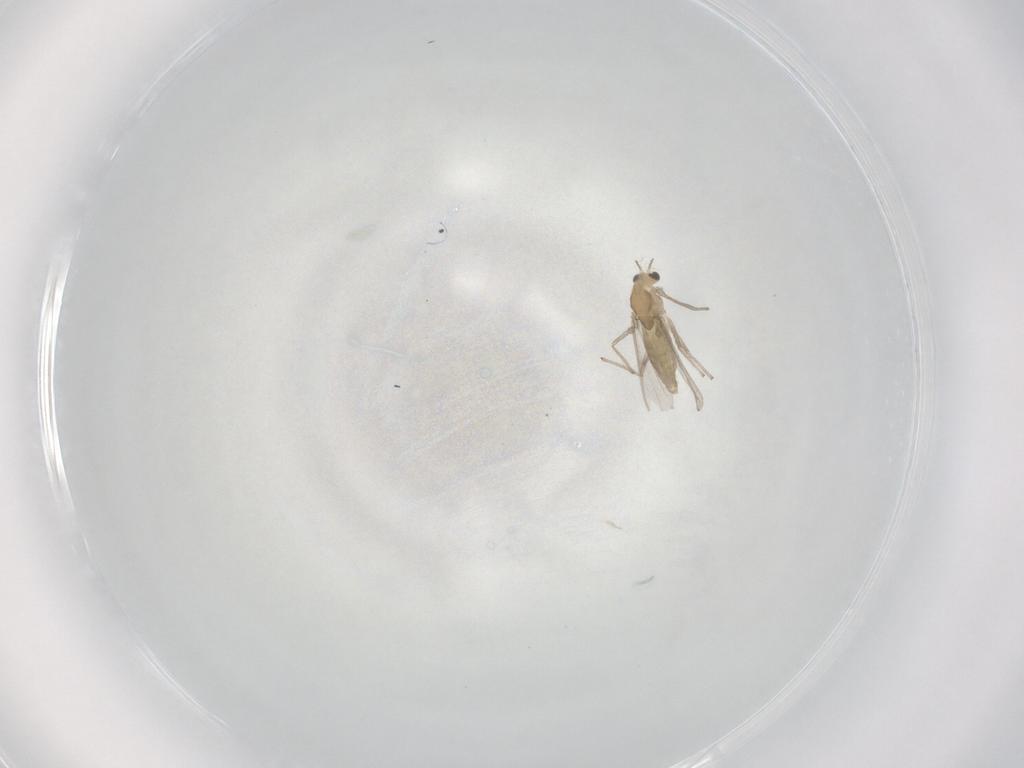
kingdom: Animalia
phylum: Arthropoda
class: Insecta
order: Diptera
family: Chironomidae
